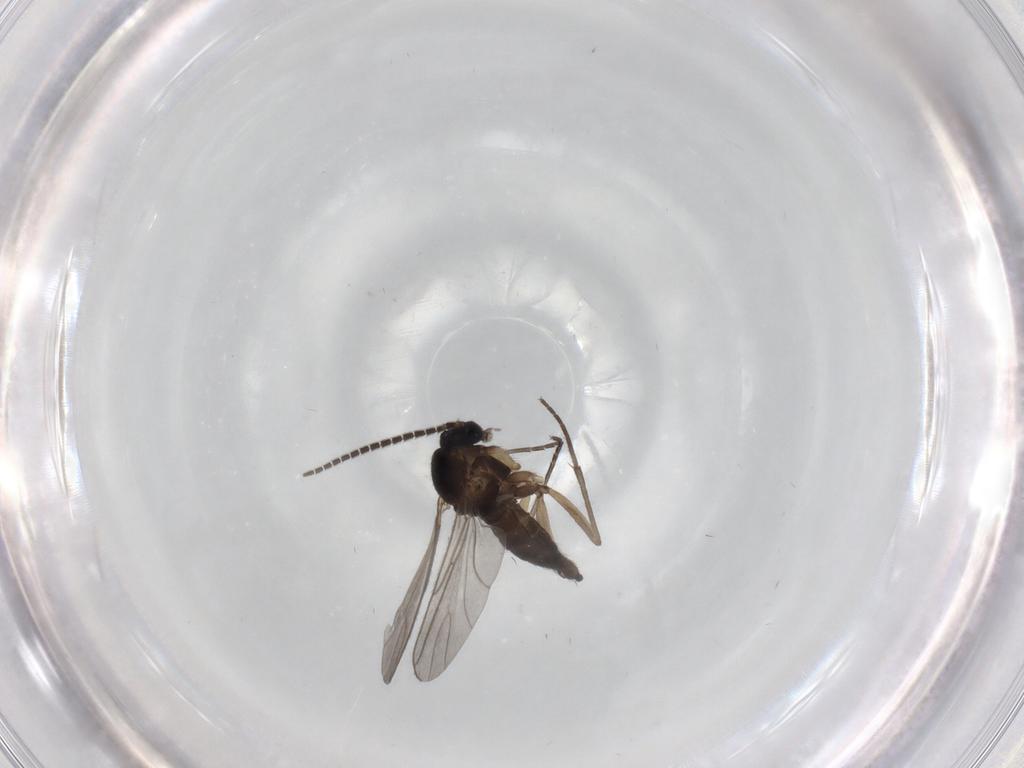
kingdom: Animalia
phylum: Arthropoda
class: Insecta
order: Diptera
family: Sciaridae
